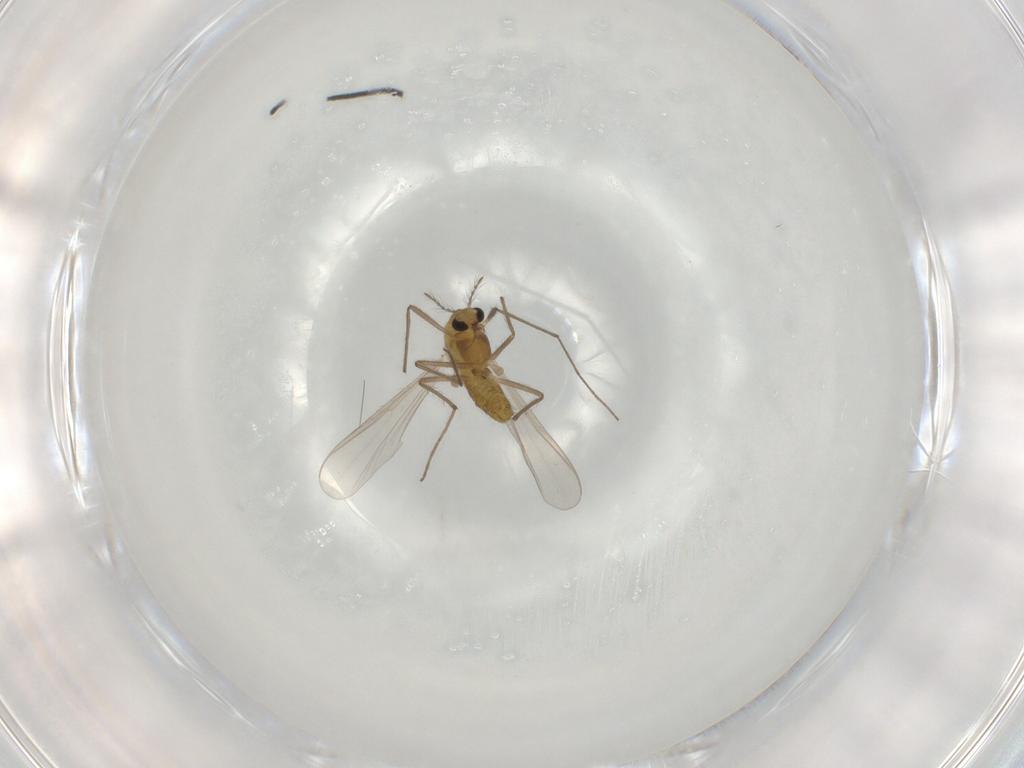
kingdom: Animalia
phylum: Arthropoda
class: Insecta
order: Diptera
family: Chironomidae
